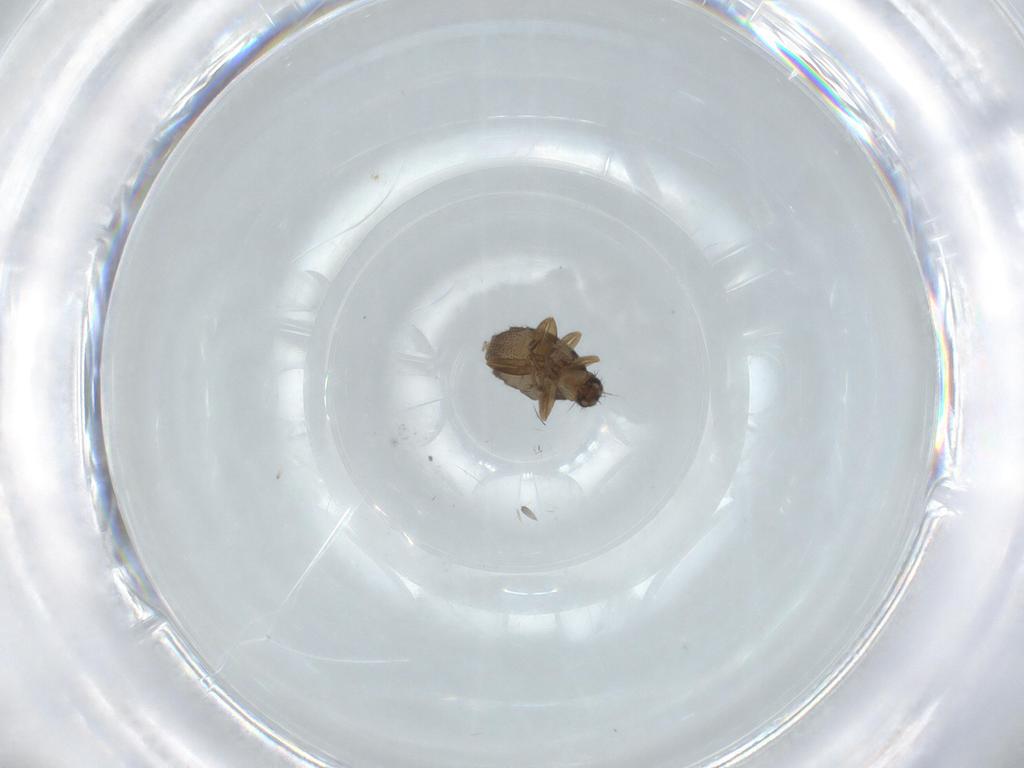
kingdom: Animalia
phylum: Arthropoda
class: Insecta
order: Diptera
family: Phoridae
